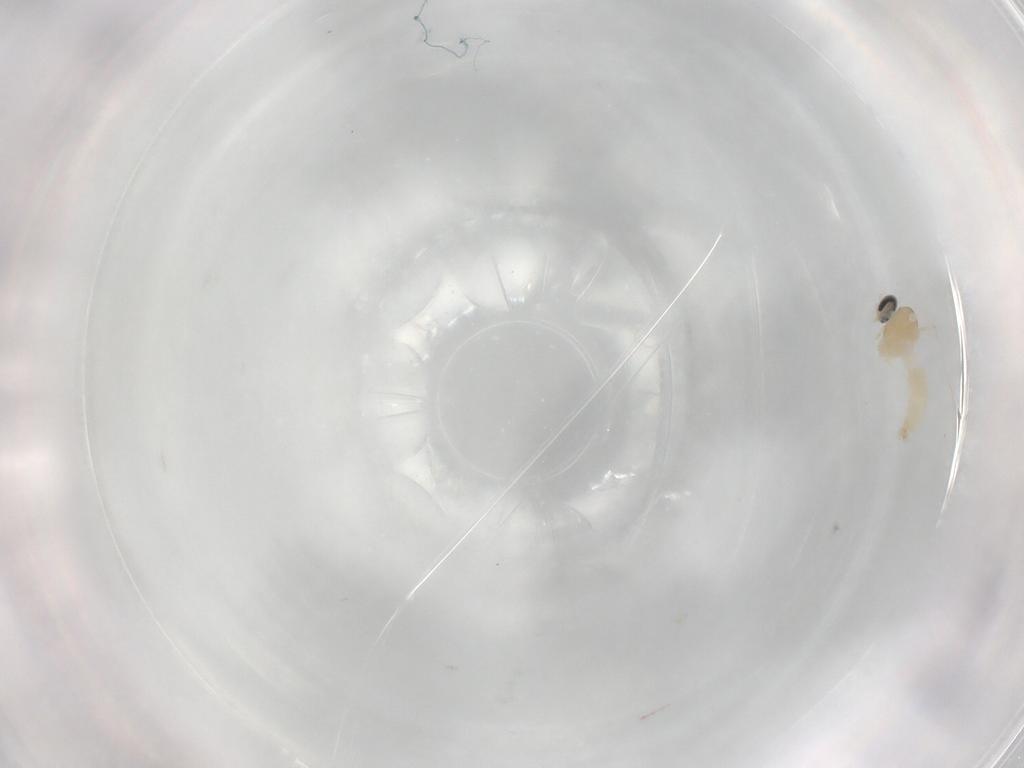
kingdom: Animalia
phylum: Arthropoda
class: Insecta
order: Diptera
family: Cecidomyiidae
